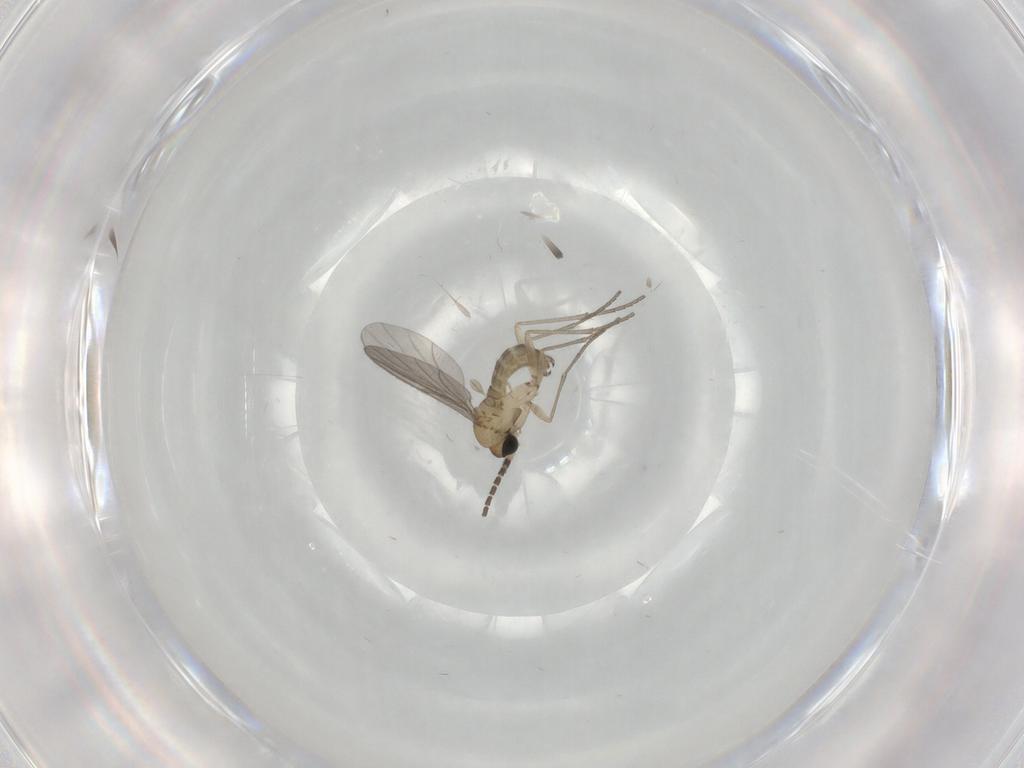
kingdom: Animalia
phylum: Arthropoda
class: Insecta
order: Diptera
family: Sciaridae
